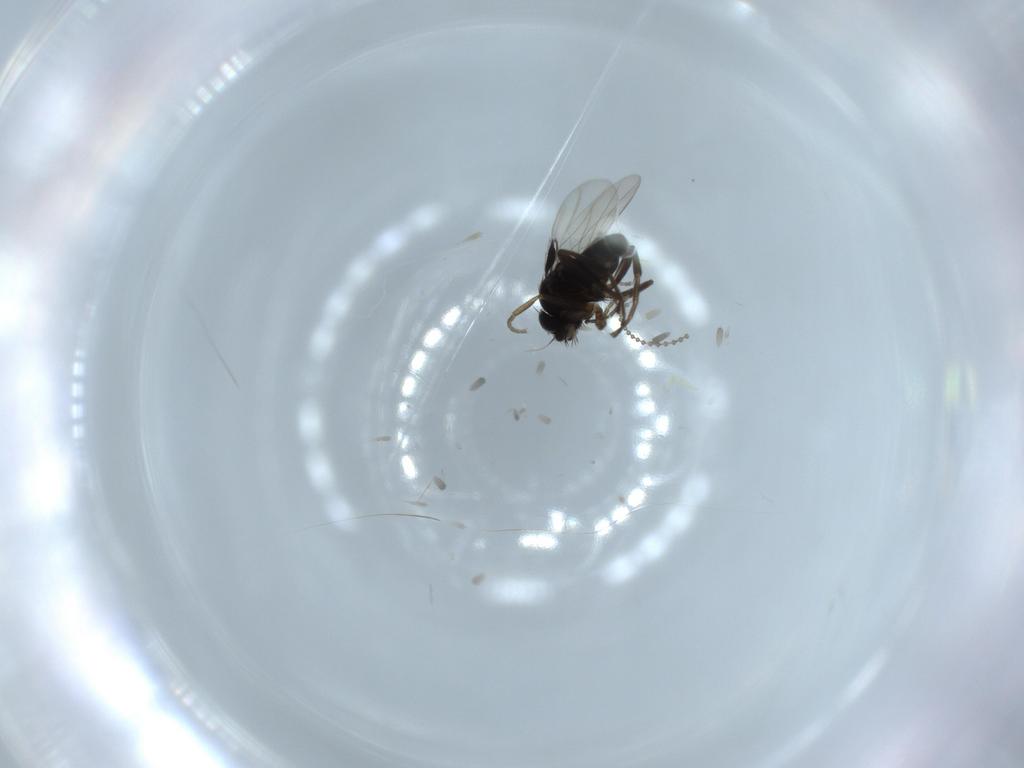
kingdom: Animalia
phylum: Arthropoda
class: Insecta
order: Diptera
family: Phoridae
